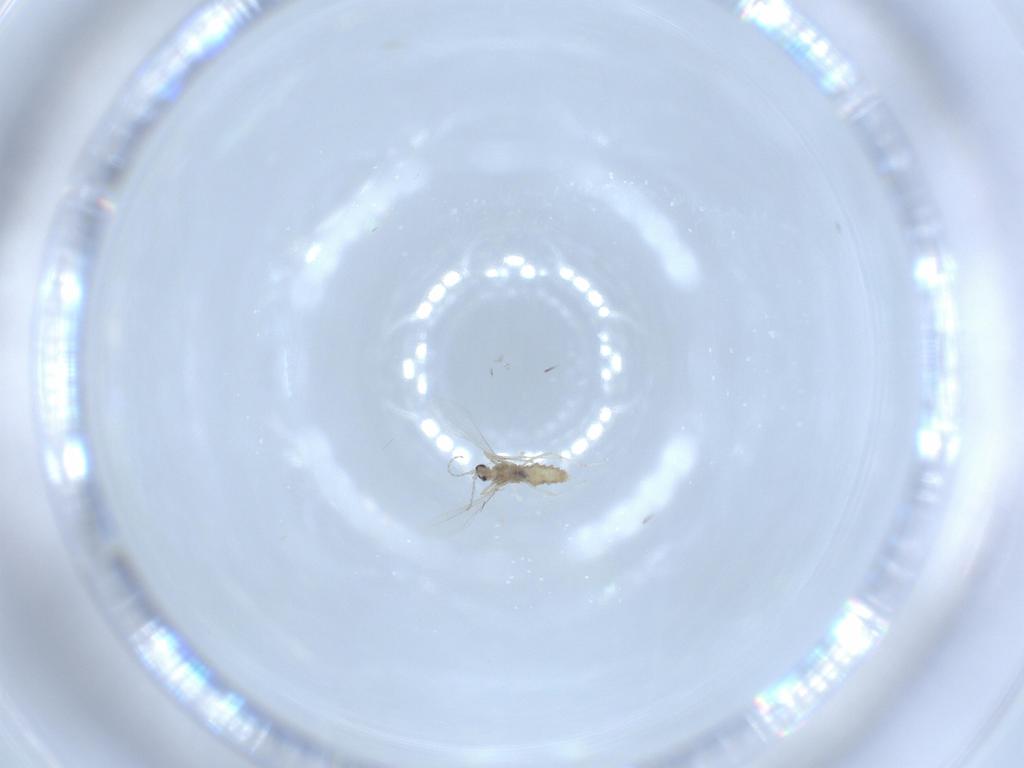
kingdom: Animalia
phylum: Arthropoda
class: Insecta
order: Diptera
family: Cecidomyiidae
